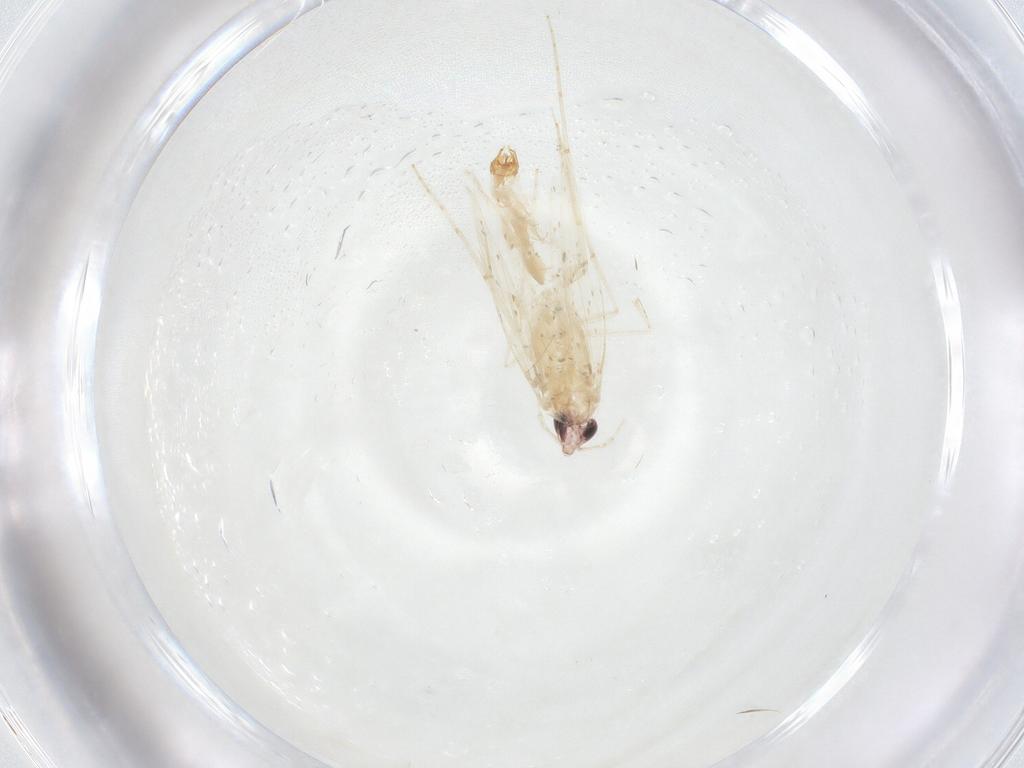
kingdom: Animalia
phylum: Arthropoda
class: Insecta
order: Lepidoptera
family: Lyonetiidae
